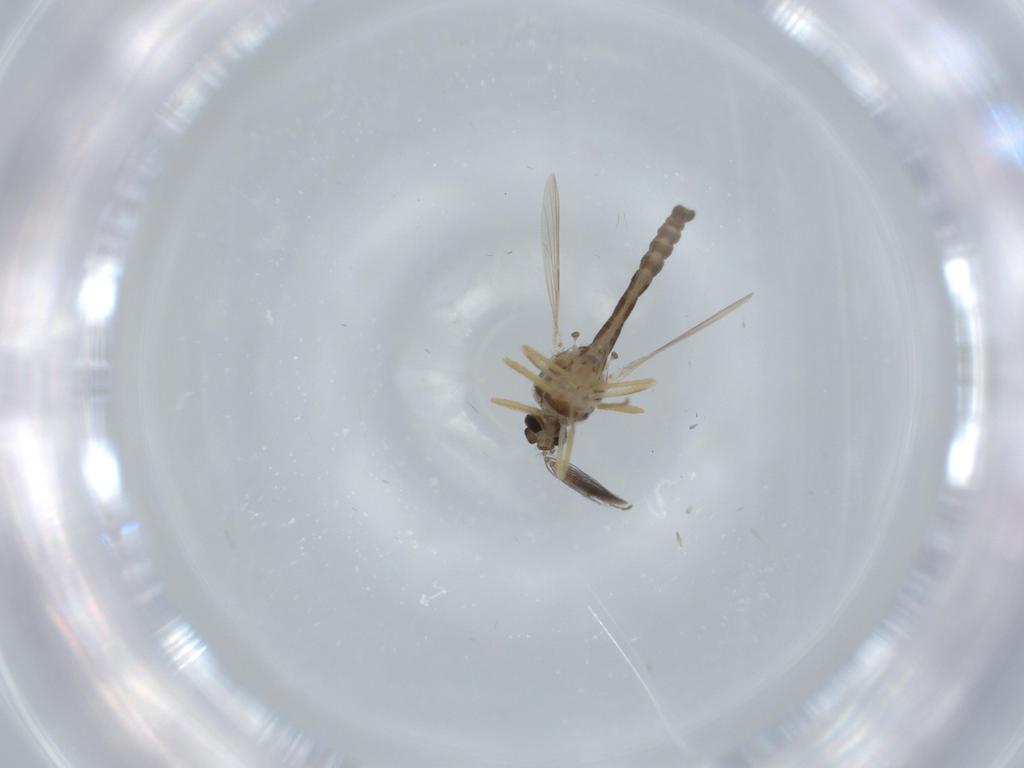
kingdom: Animalia
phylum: Arthropoda
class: Insecta
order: Diptera
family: Ceratopogonidae
